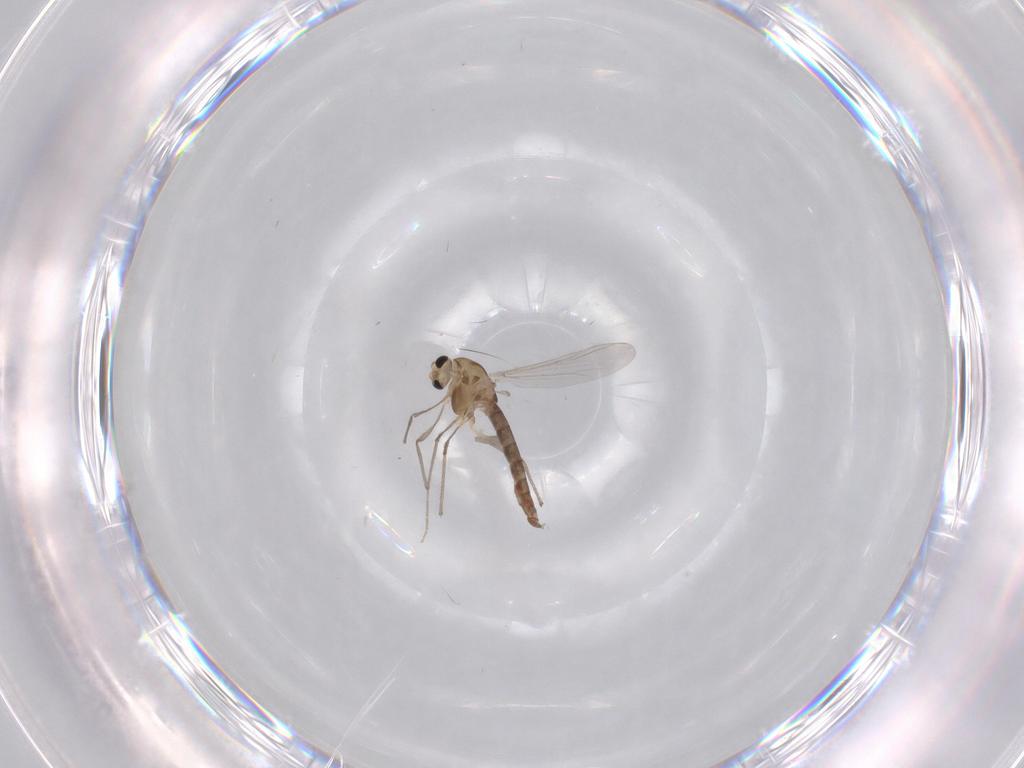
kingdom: Animalia
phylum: Arthropoda
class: Insecta
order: Diptera
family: Chironomidae
